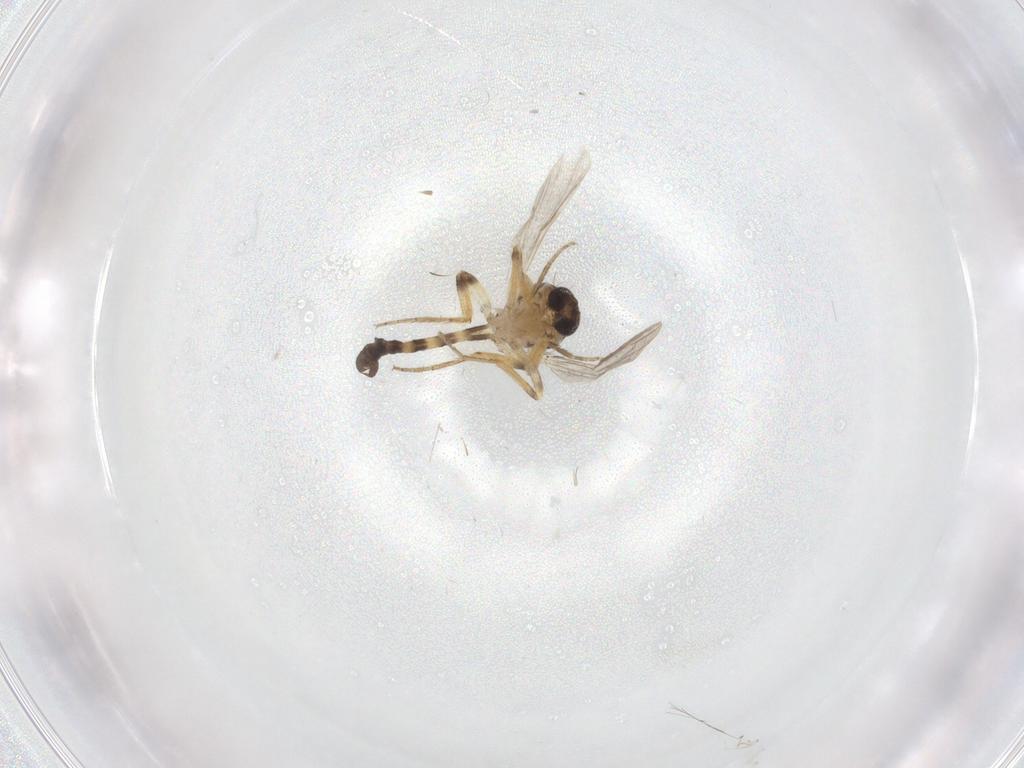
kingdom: Animalia
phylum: Arthropoda
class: Insecta
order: Diptera
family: Ceratopogonidae
